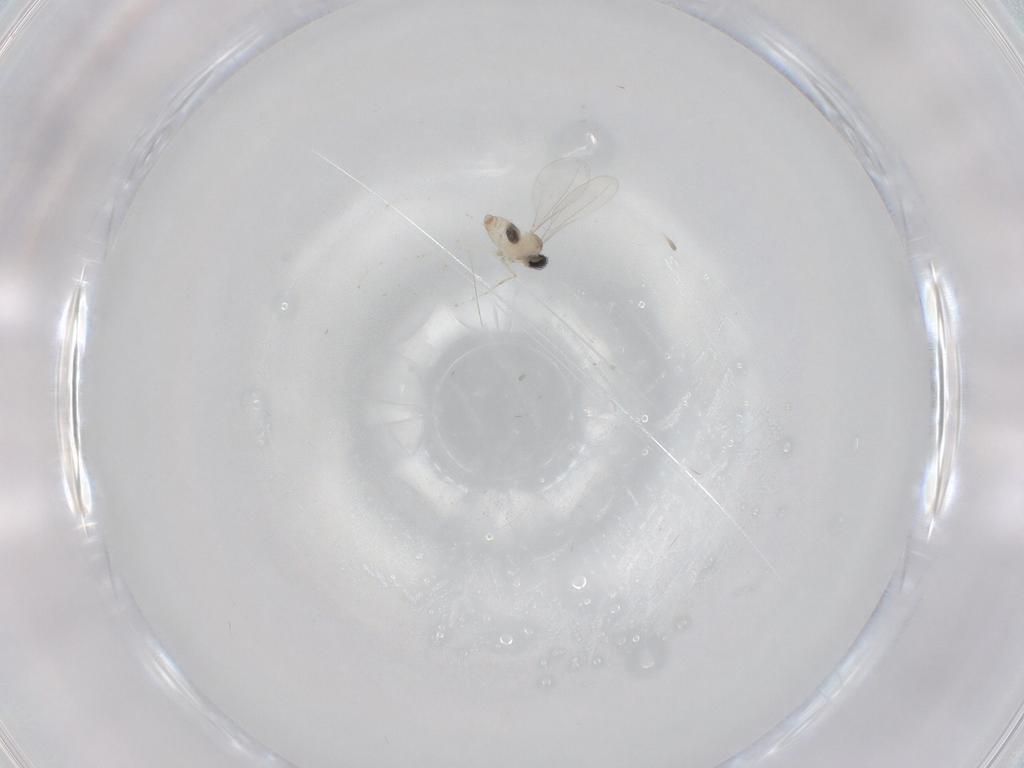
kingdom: Animalia
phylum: Arthropoda
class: Insecta
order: Diptera
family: Cecidomyiidae
